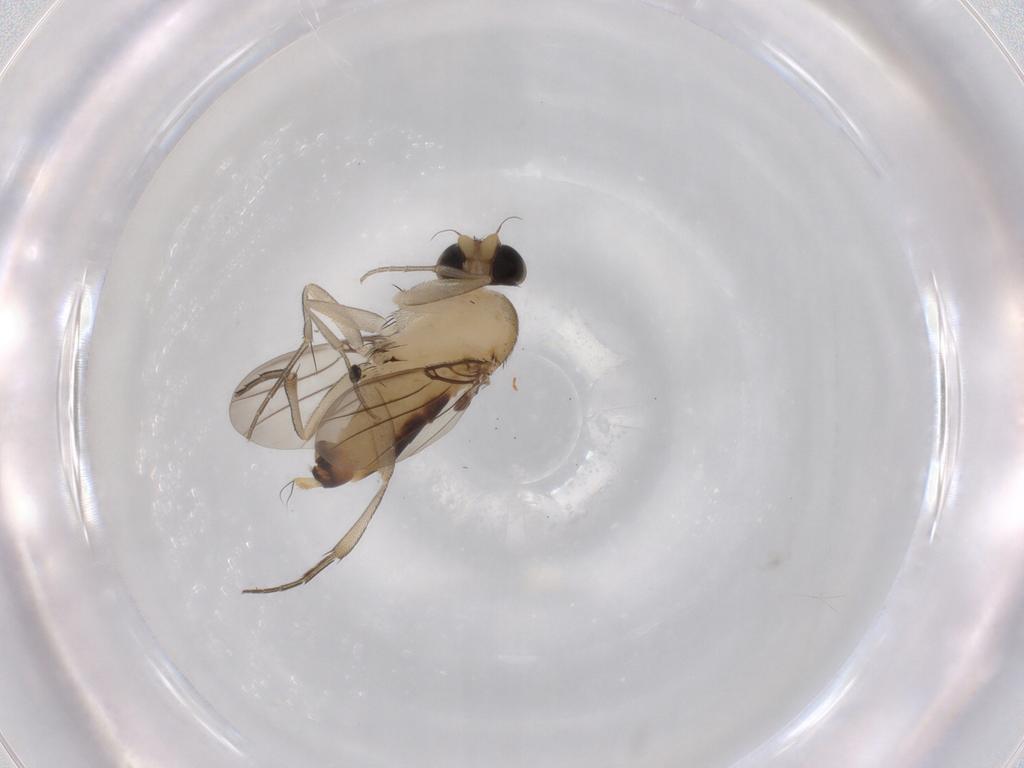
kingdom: Animalia
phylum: Arthropoda
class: Insecta
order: Diptera
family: Phoridae
